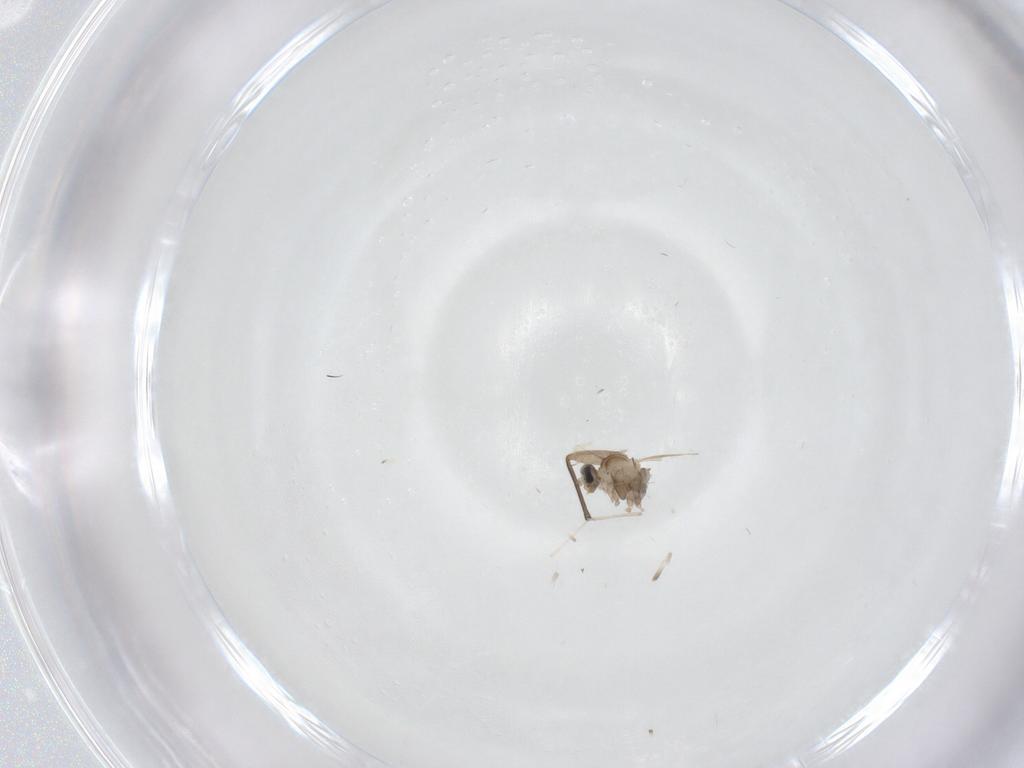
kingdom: Animalia
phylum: Arthropoda
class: Insecta
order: Diptera
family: Cecidomyiidae
